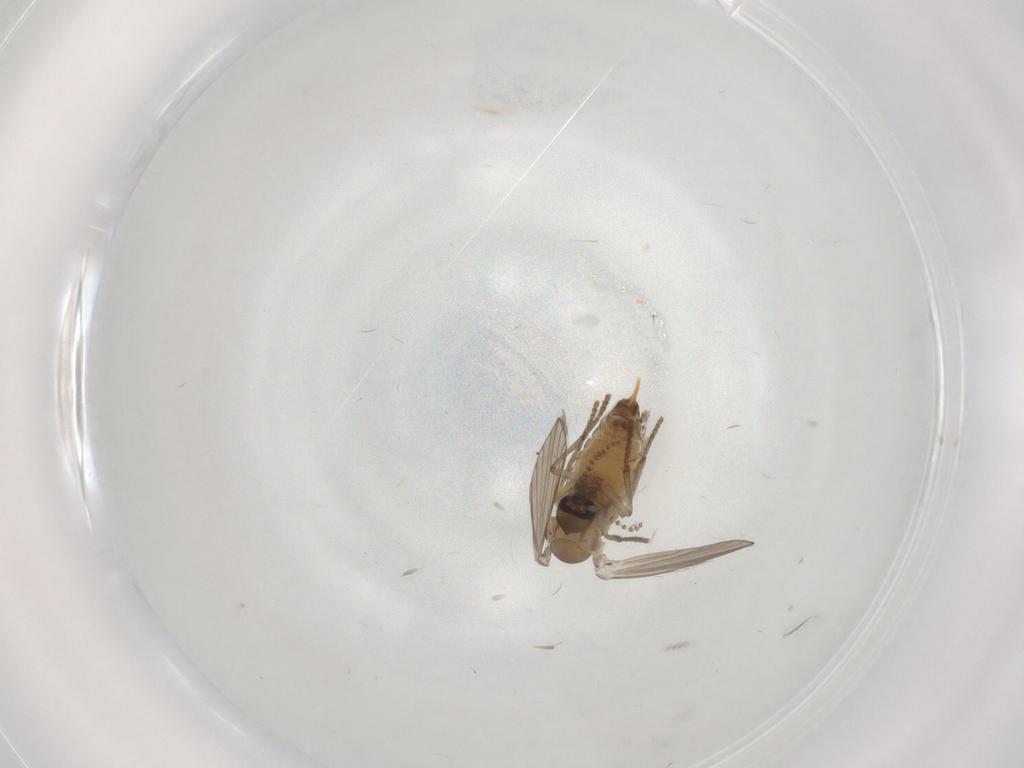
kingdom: Animalia
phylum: Arthropoda
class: Insecta
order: Diptera
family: Psychodidae
